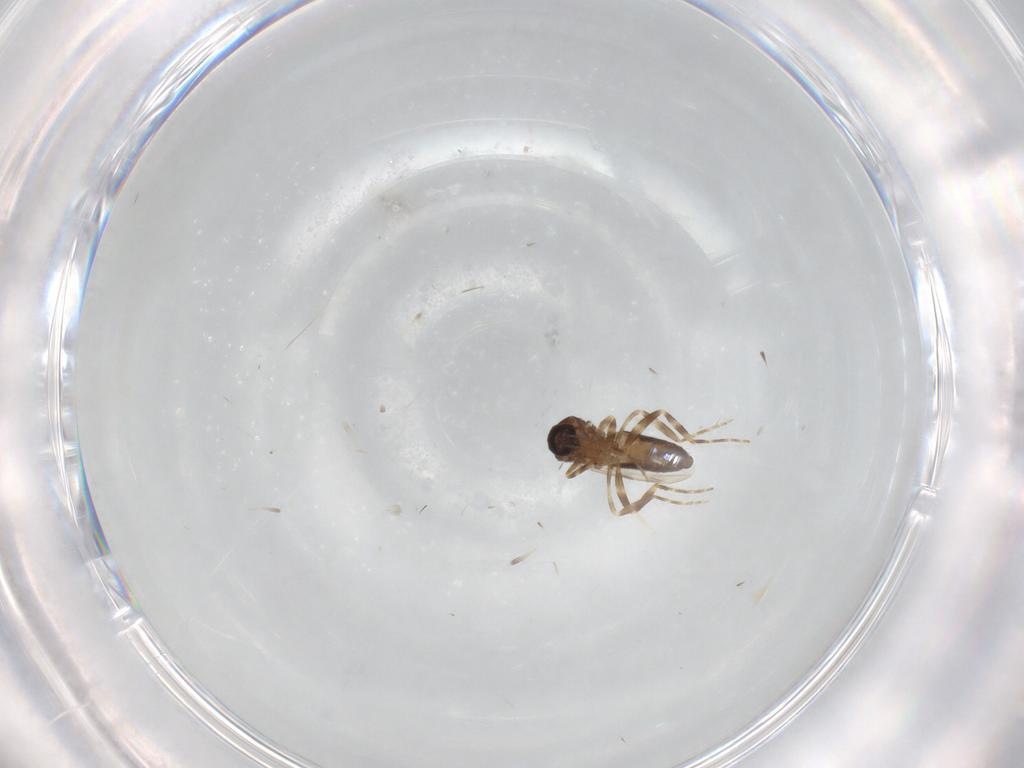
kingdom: Animalia
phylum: Arthropoda
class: Insecta
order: Diptera
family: Ceratopogonidae
